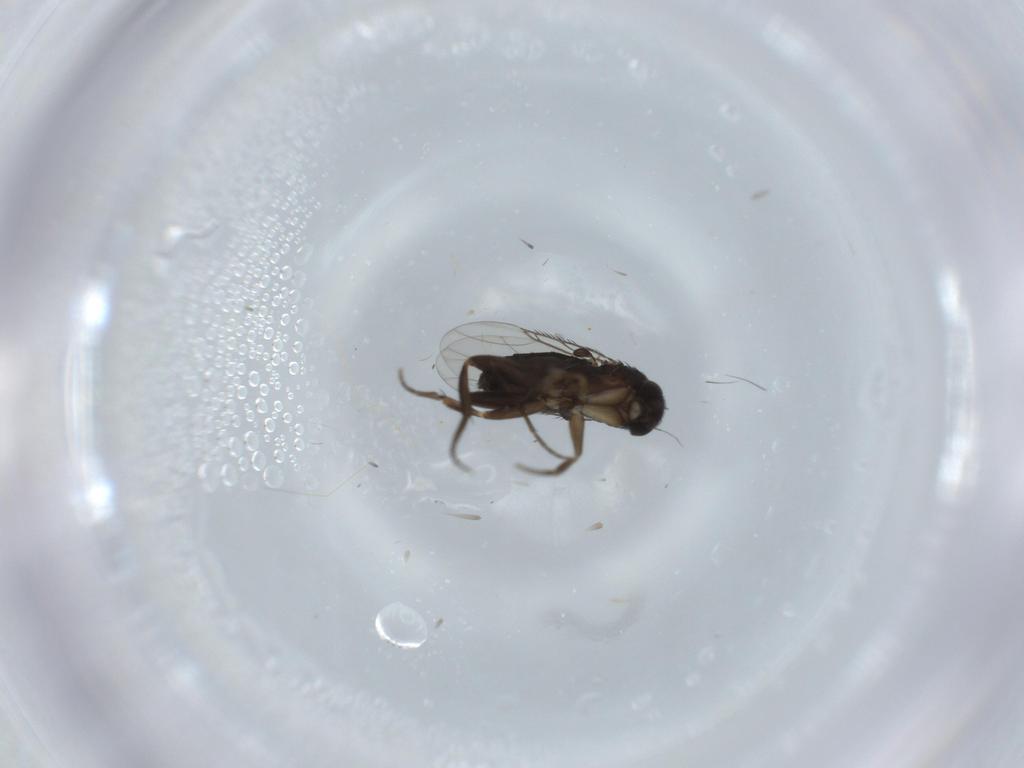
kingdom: Animalia
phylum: Arthropoda
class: Insecta
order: Diptera
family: Phoridae
